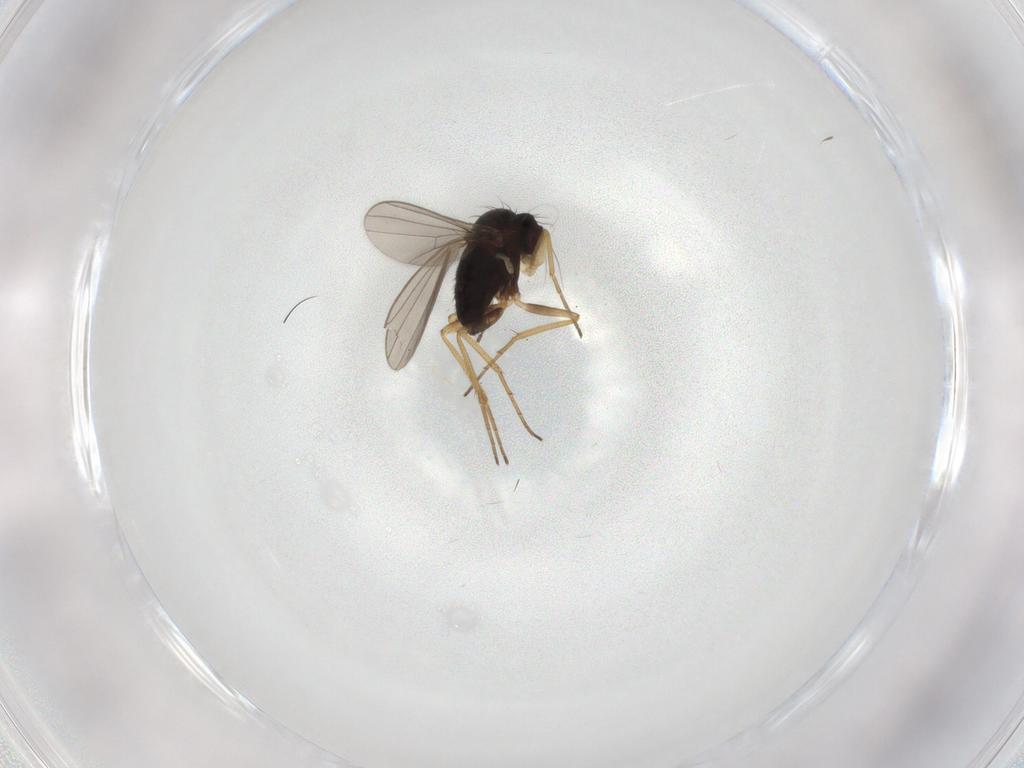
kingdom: Animalia
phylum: Arthropoda
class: Insecta
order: Diptera
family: Dolichopodidae
